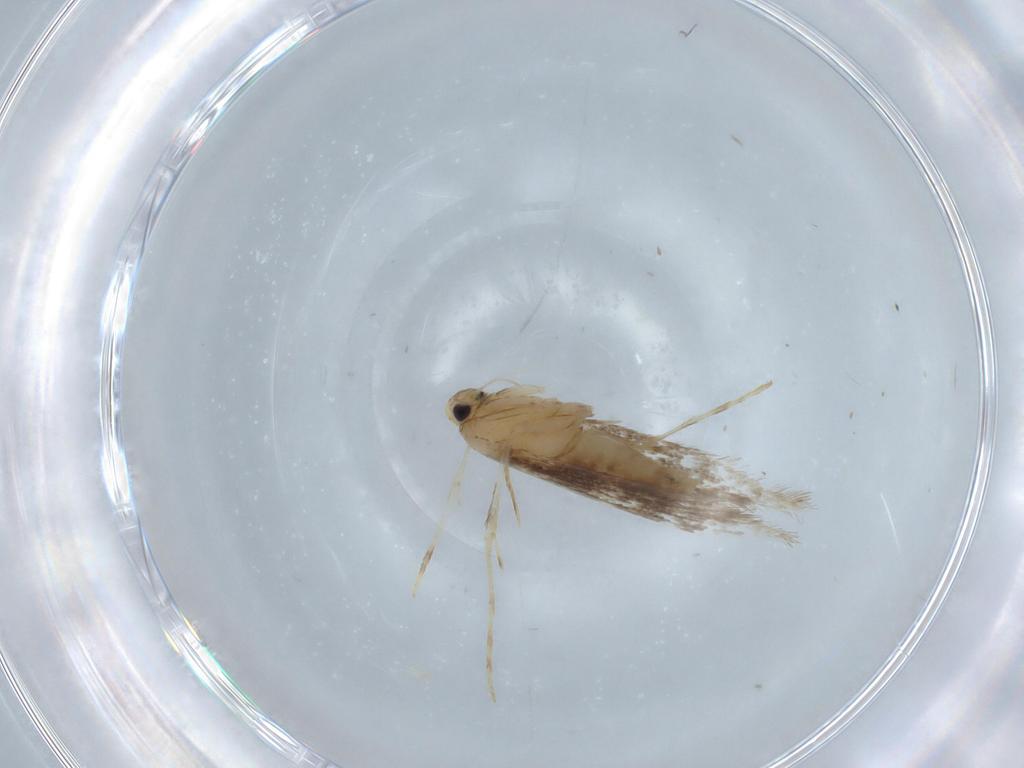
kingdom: Animalia
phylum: Arthropoda
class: Insecta
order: Lepidoptera
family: Gracillariidae
